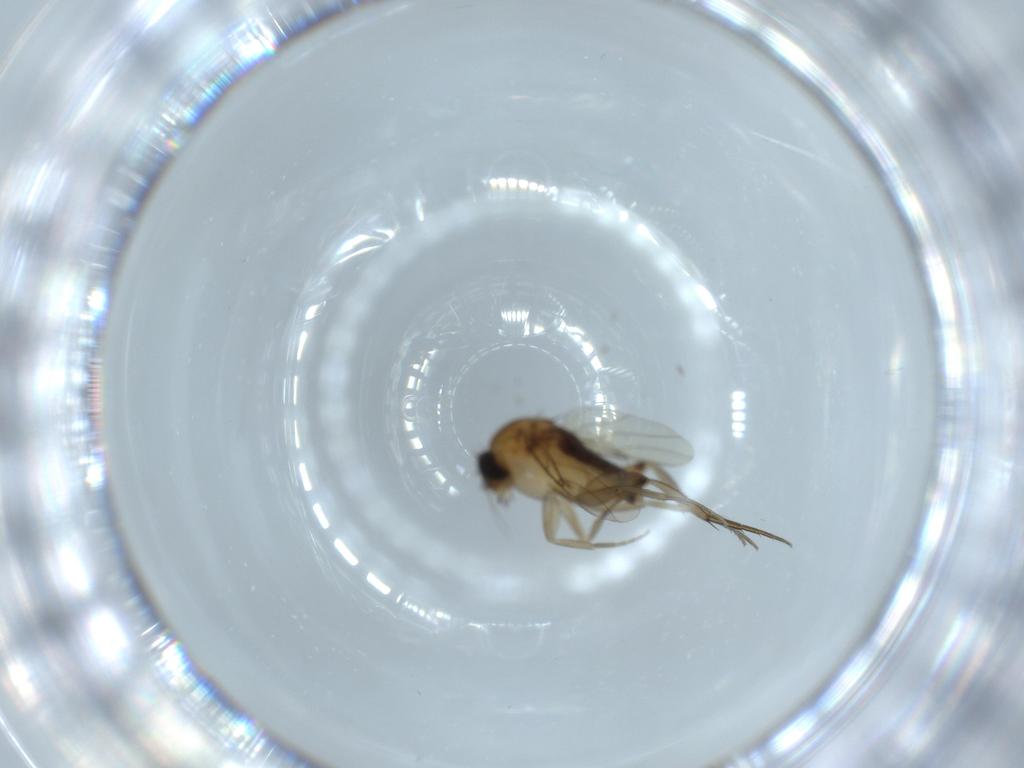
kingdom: Animalia
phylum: Arthropoda
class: Insecta
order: Diptera
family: Phoridae
